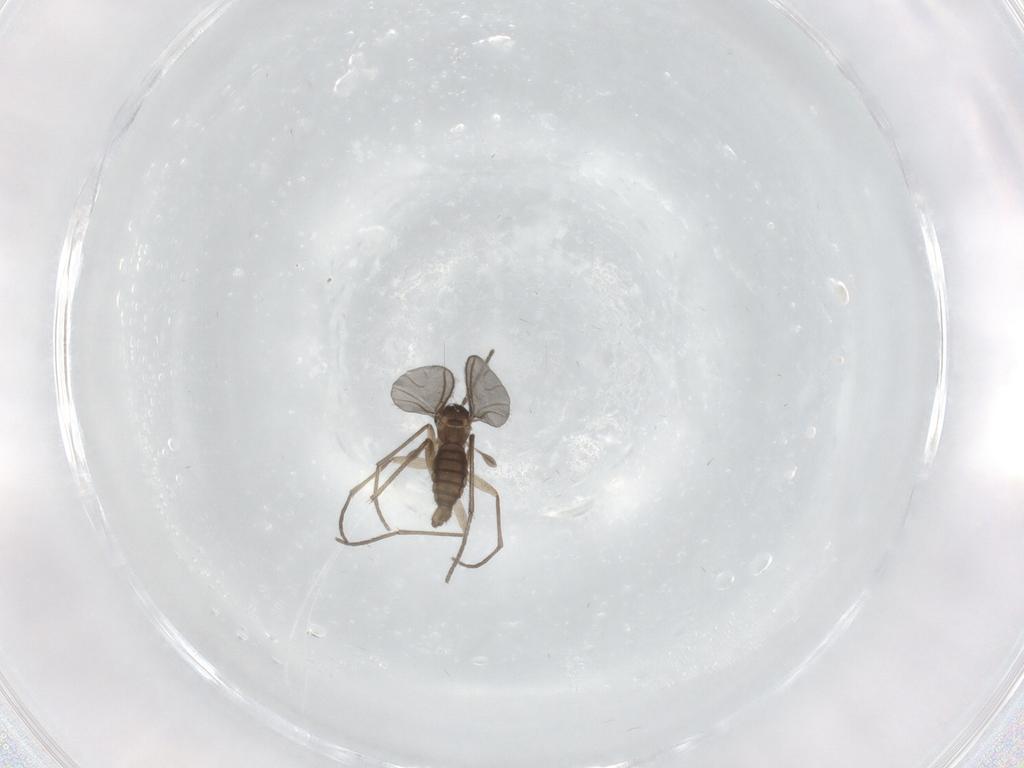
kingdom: Animalia
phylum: Arthropoda
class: Insecta
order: Diptera
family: Sciaridae
